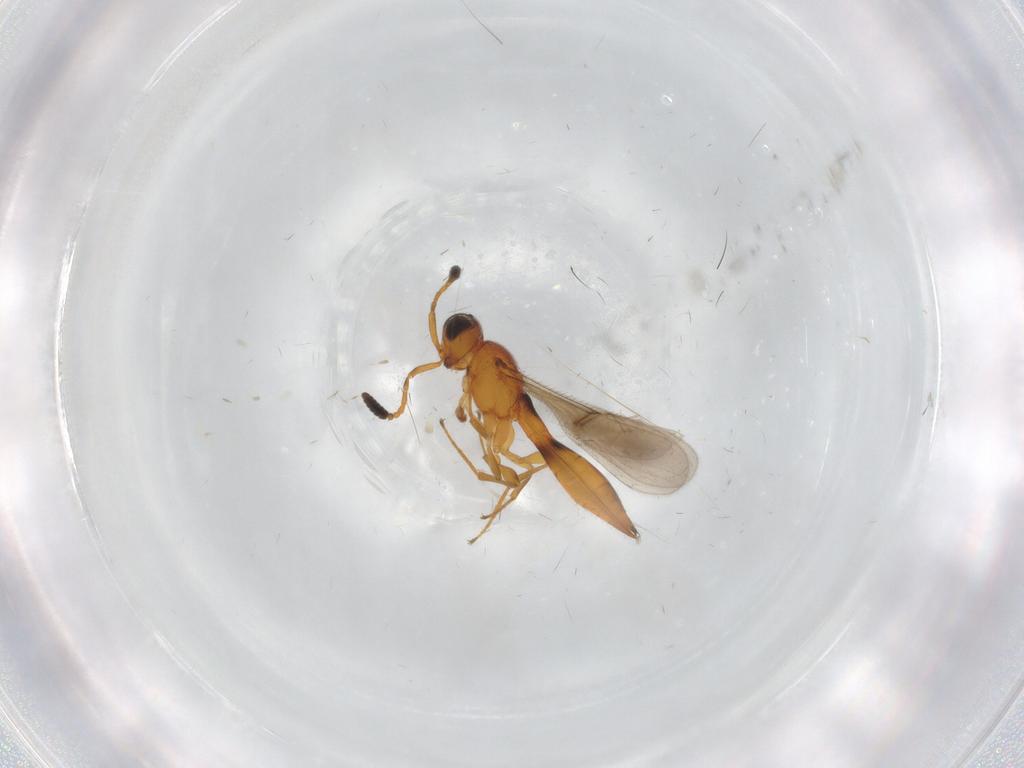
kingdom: Animalia
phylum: Arthropoda
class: Insecta
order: Hymenoptera
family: Scelionidae
